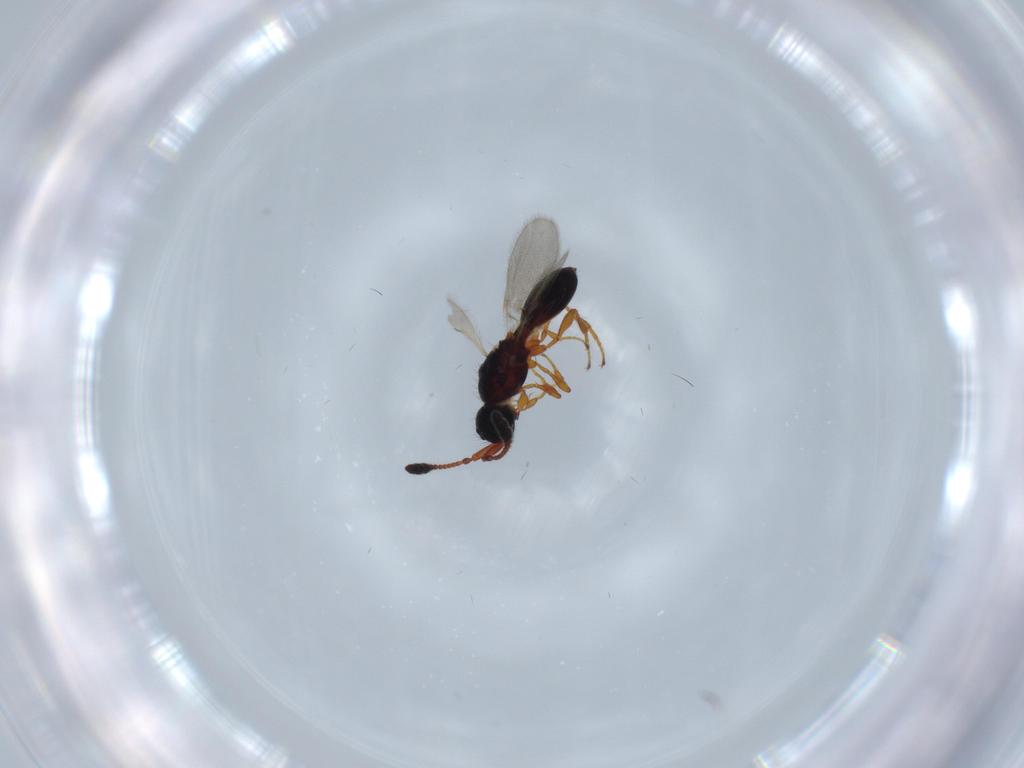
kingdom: Animalia
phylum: Arthropoda
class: Insecta
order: Hymenoptera
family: Diapriidae
